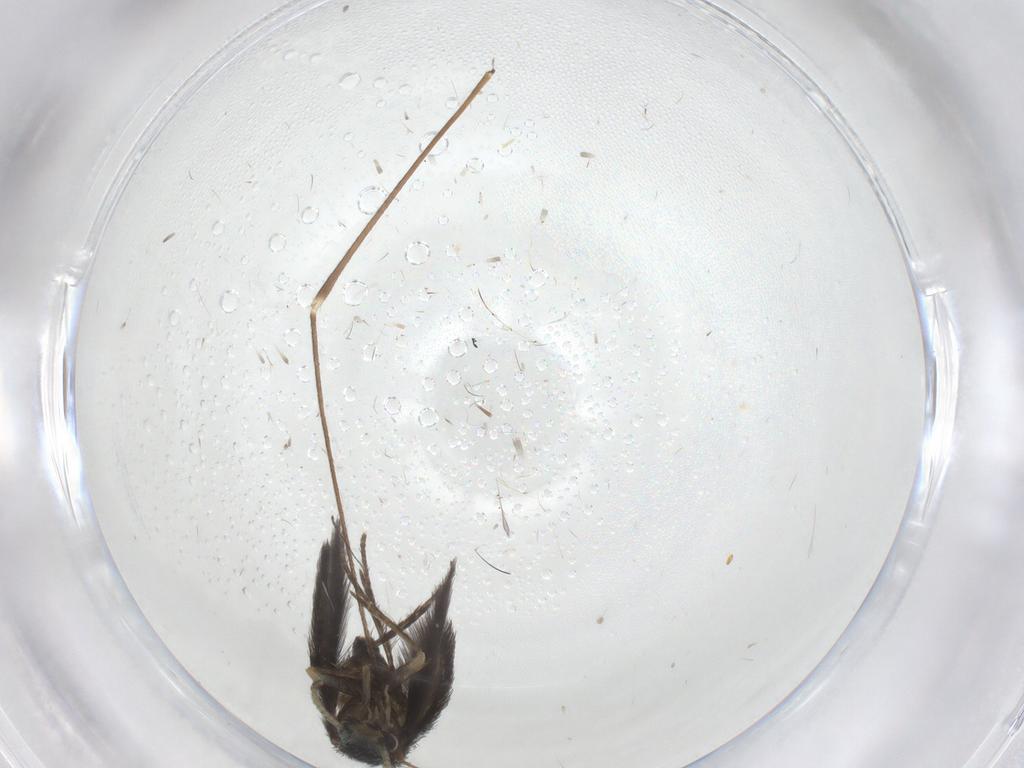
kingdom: Animalia
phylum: Arthropoda
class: Insecta
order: Trichoptera
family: Hydroptilidae
